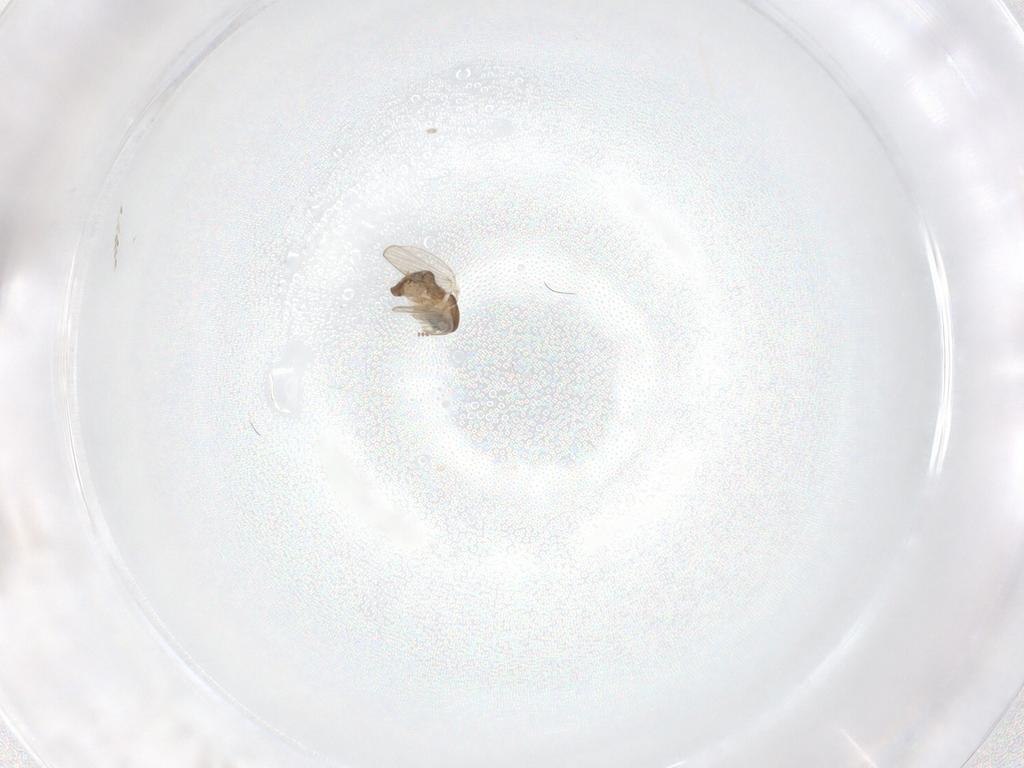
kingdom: Animalia
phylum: Arthropoda
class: Insecta
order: Diptera
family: Psychodidae
